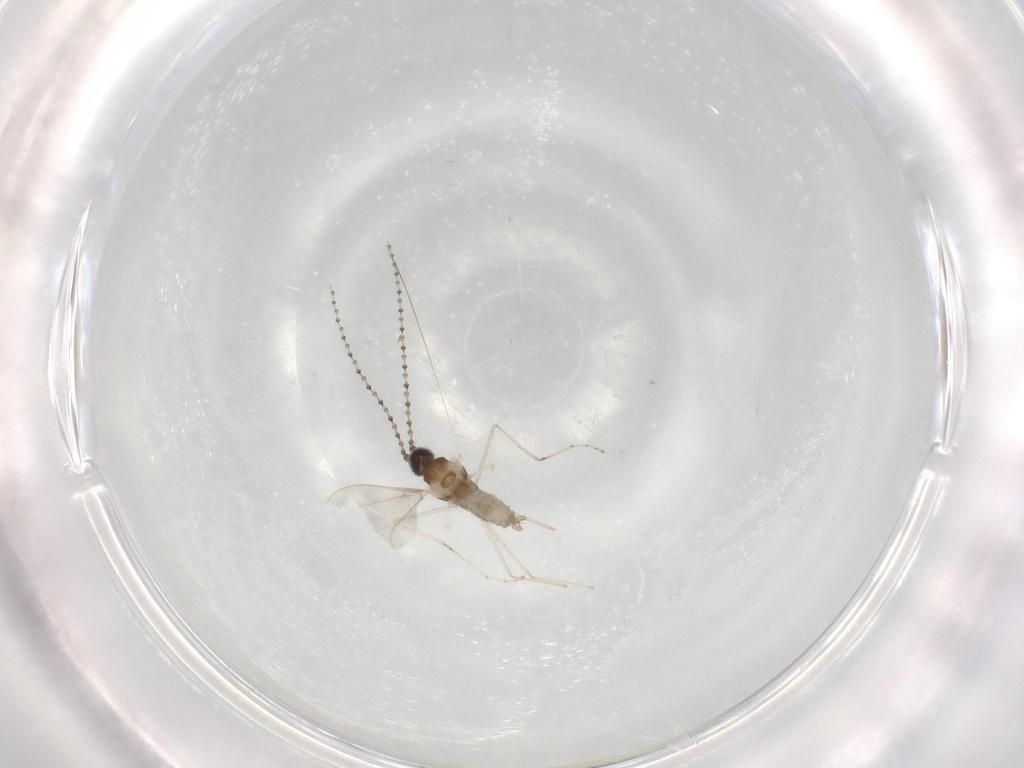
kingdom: Animalia
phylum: Arthropoda
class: Insecta
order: Diptera
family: Cecidomyiidae
